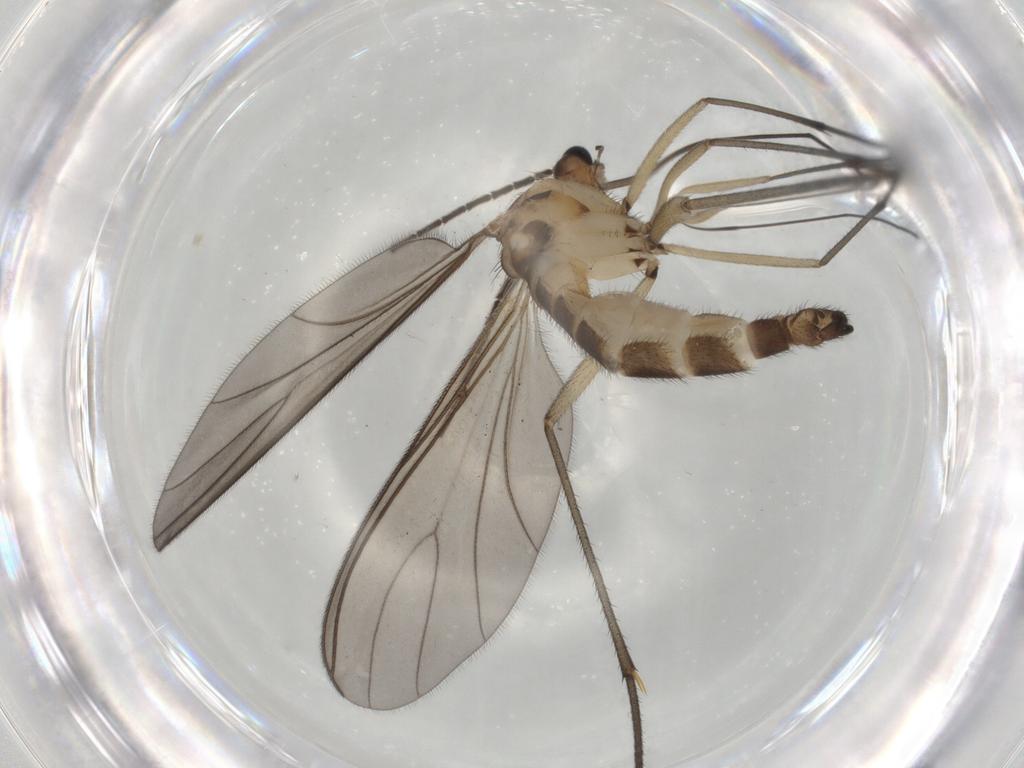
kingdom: Animalia
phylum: Arthropoda
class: Insecta
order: Diptera
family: Sciaridae
